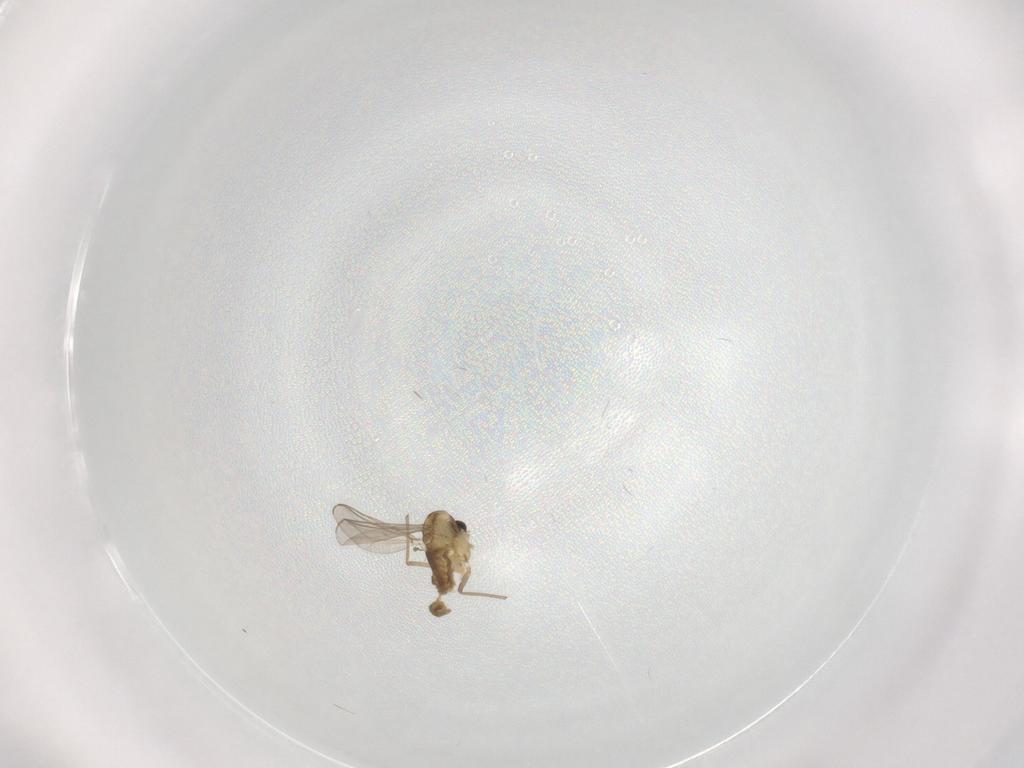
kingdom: Animalia
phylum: Arthropoda
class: Insecta
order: Diptera
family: Chironomidae
